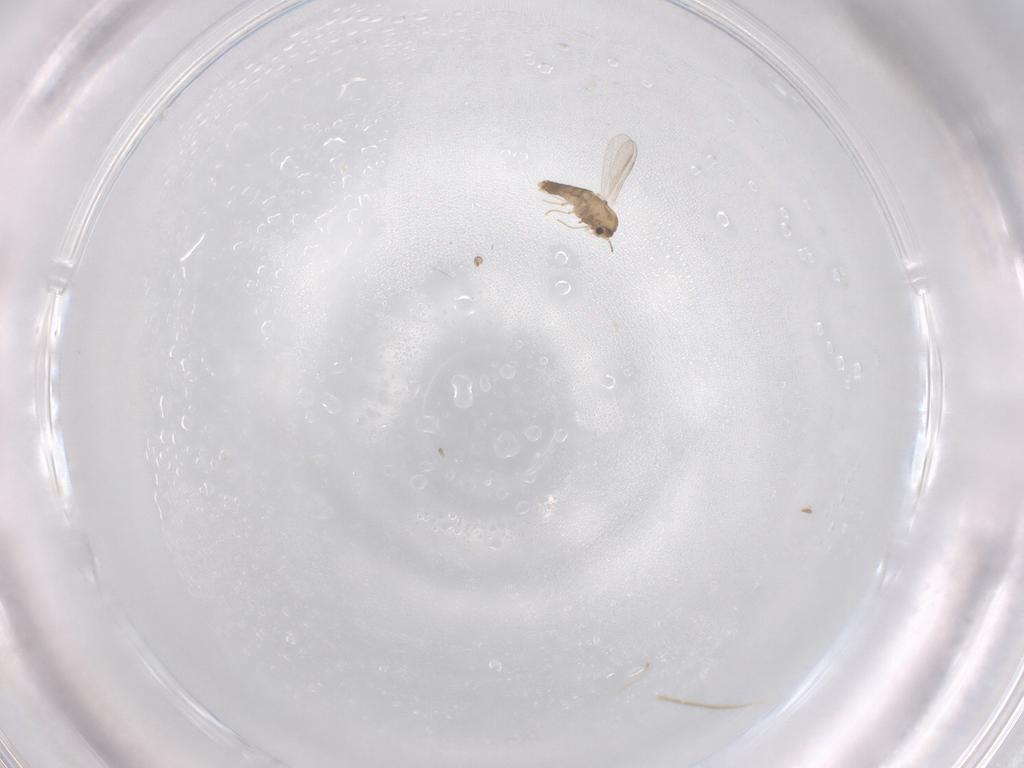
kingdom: Animalia
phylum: Arthropoda
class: Insecta
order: Diptera
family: Chironomidae
